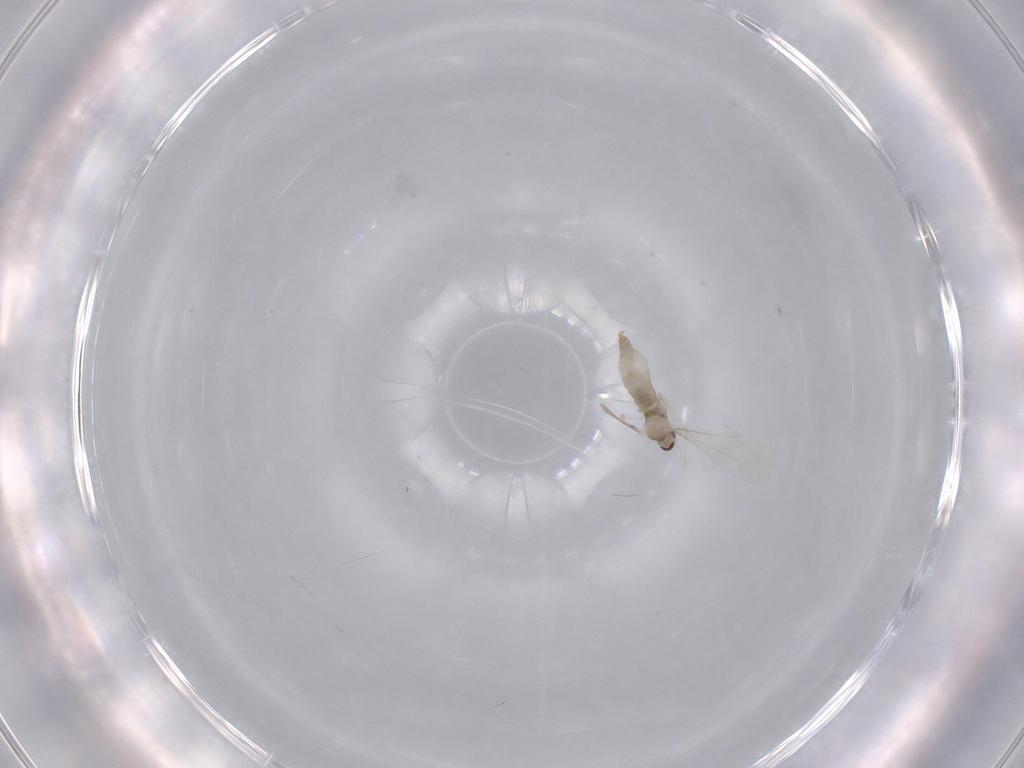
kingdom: Animalia
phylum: Arthropoda
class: Insecta
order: Diptera
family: Cecidomyiidae
